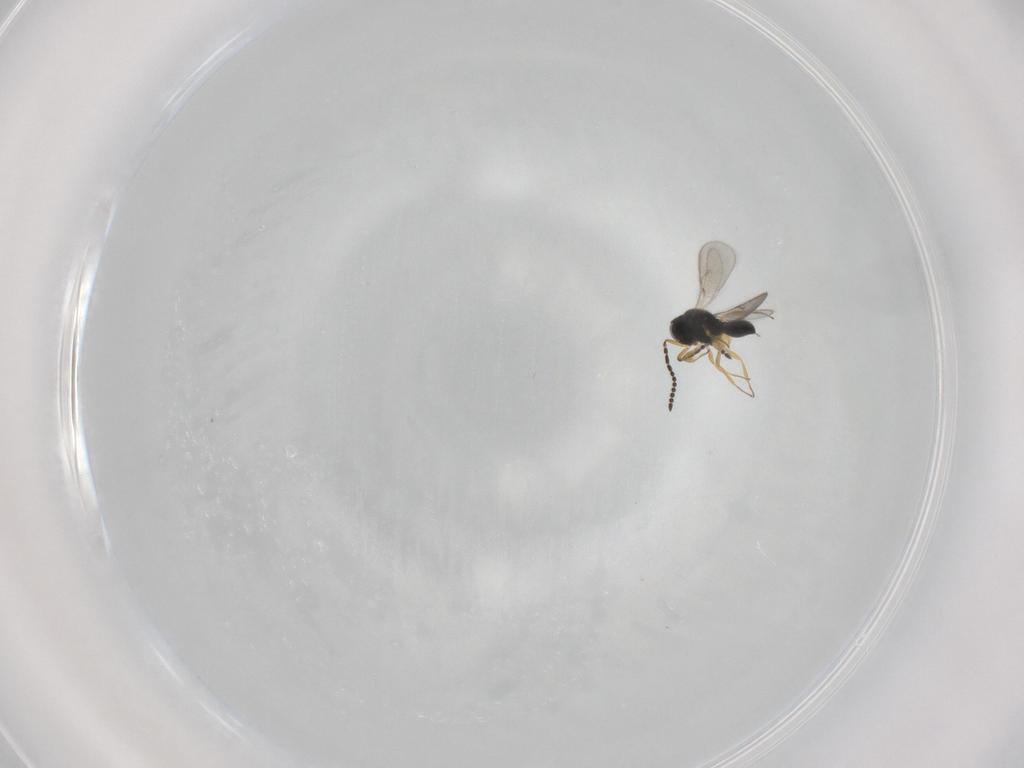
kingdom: Animalia
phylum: Arthropoda
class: Insecta
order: Hymenoptera
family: Scelionidae
